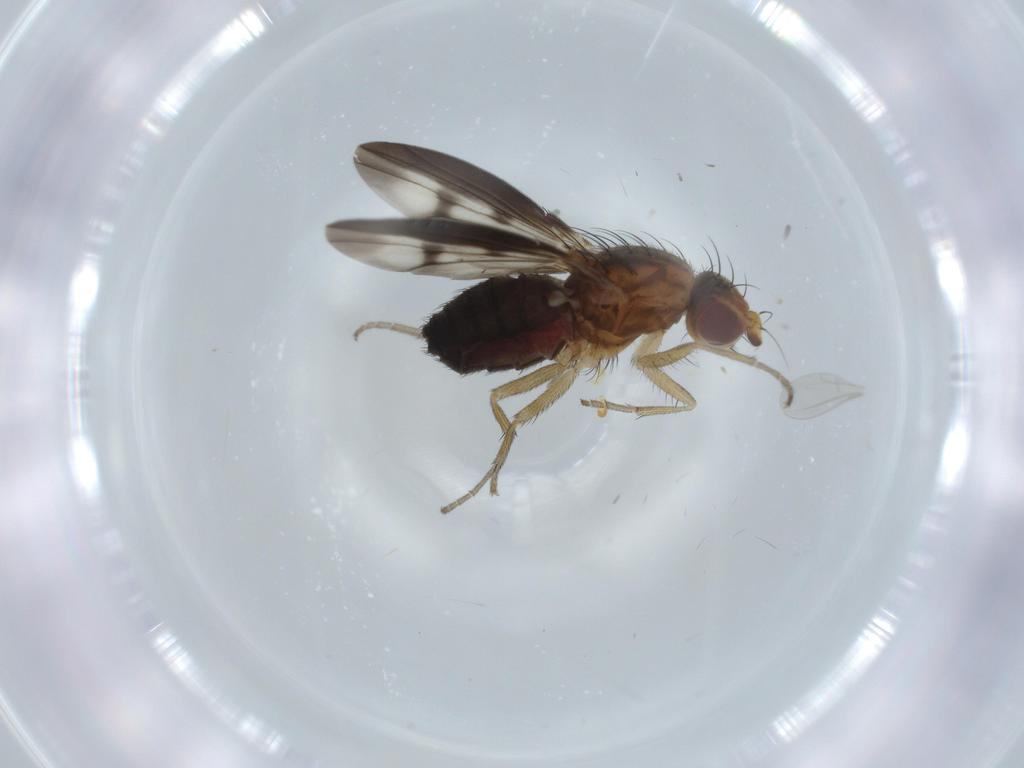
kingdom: Animalia
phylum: Arthropoda
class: Insecta
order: Diptera
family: Heleomyzidae
